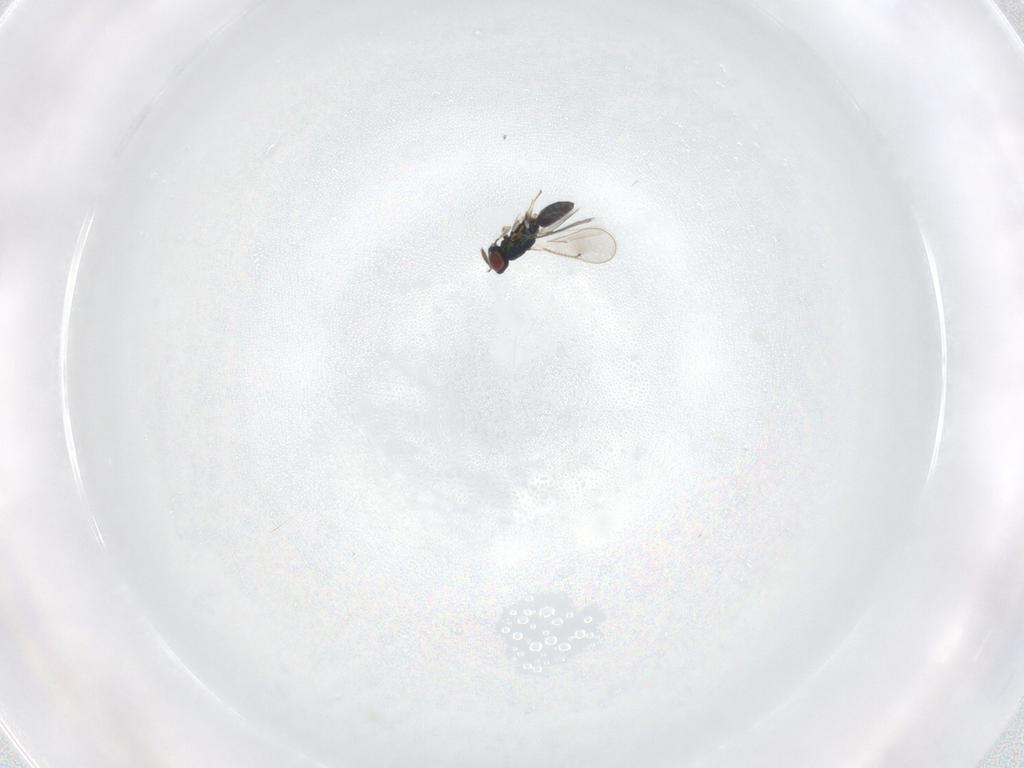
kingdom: Animalia
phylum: Arthropoda
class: Insecta
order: Hymenoptera
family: Eulophidae
